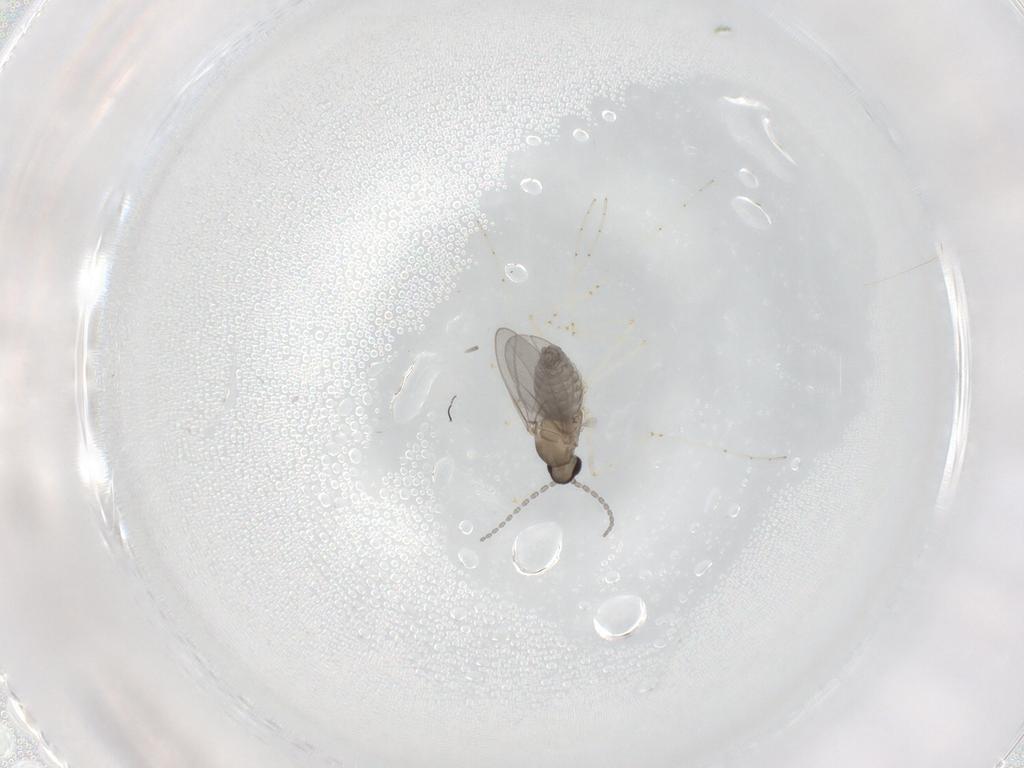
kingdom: Animalia
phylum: Arthropoda
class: Insecta
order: Diptera
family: Cecidomyiidae
